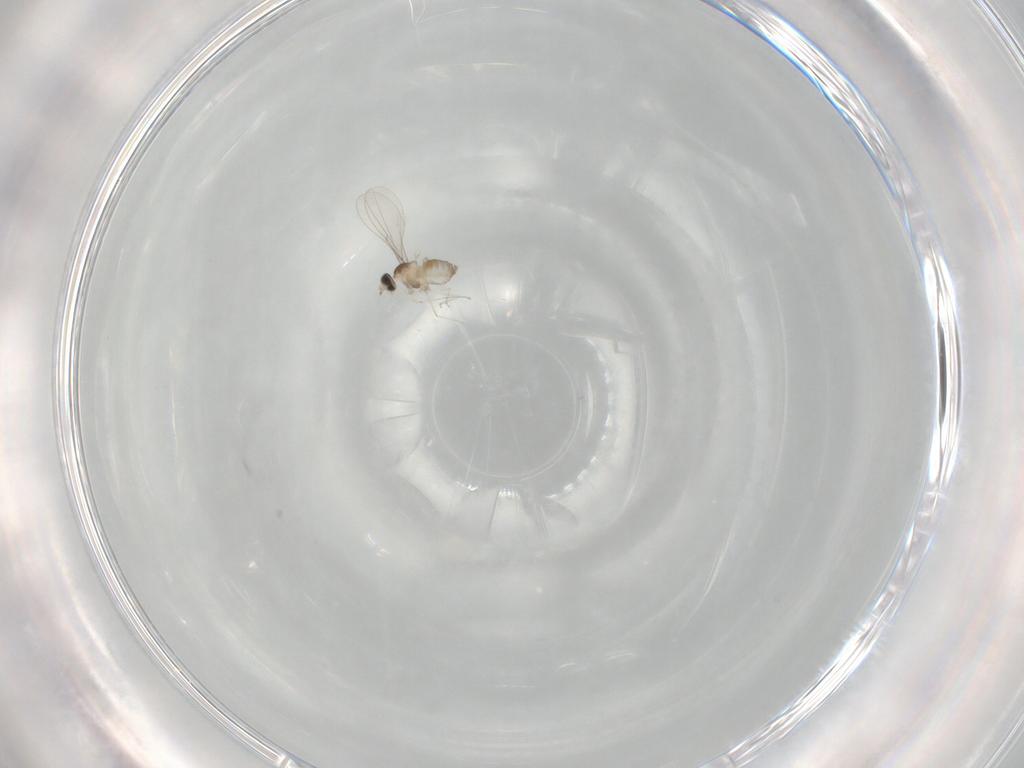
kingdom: Animalia
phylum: Arthropoda
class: Insecta
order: Diptera
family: Cecidomyiidae
